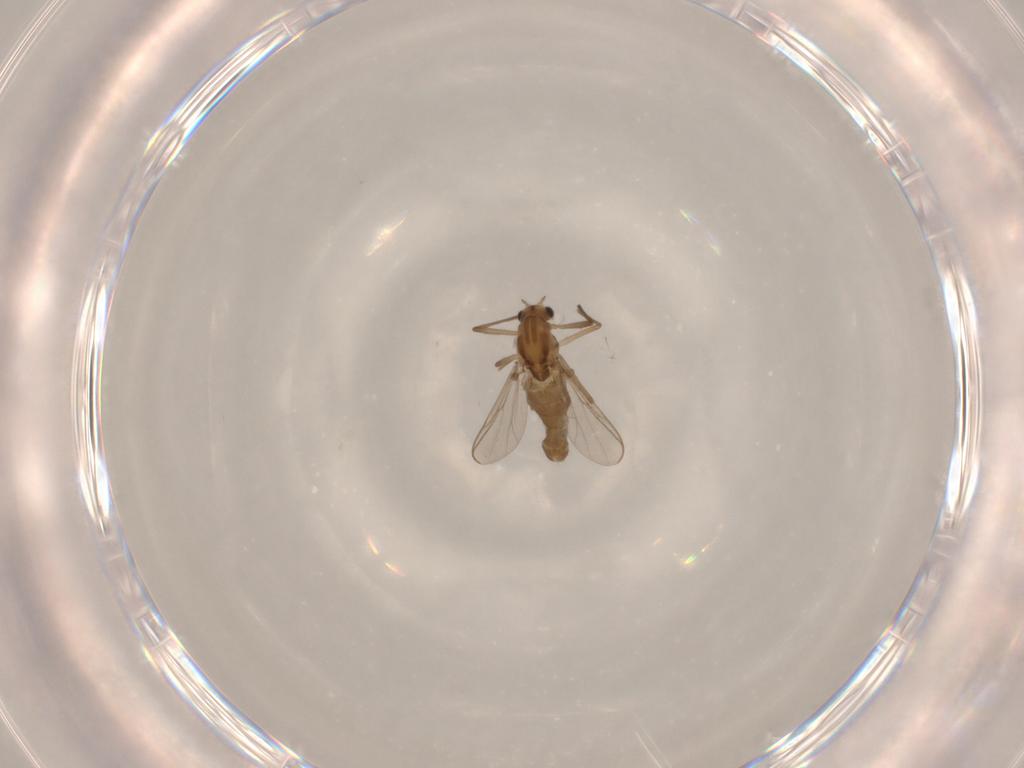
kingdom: Animalia
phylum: Arthropoda
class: Insecta
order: Diptera
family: Chironomidae
